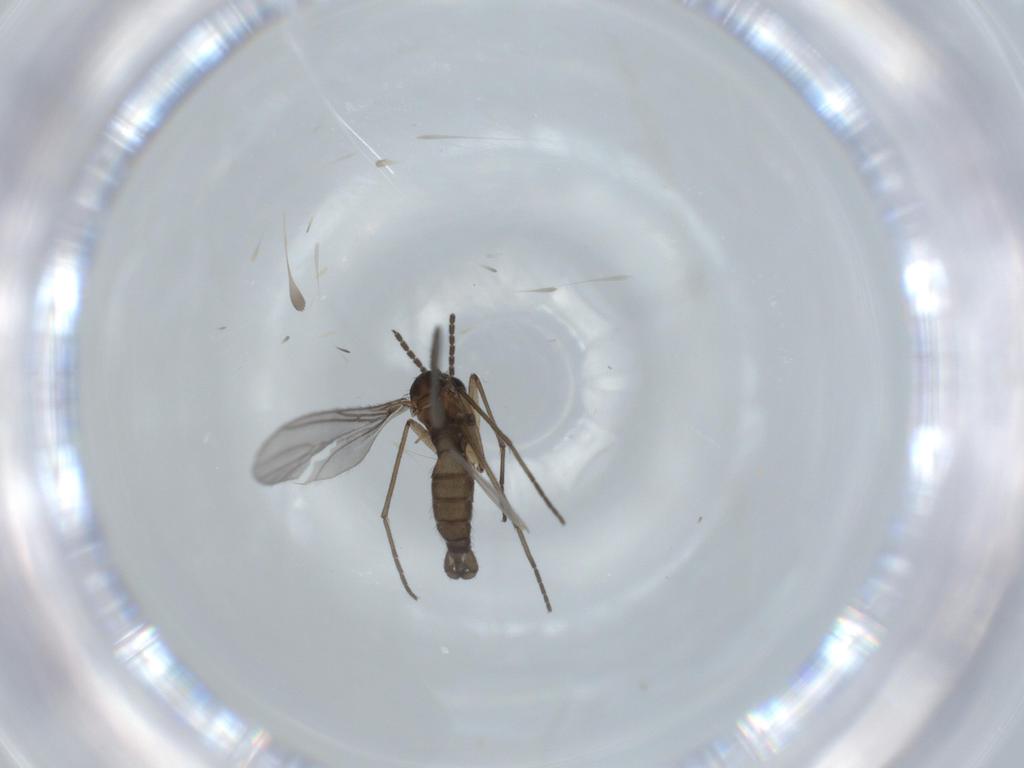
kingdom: Animalia
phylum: Arthropoda
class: Insecta
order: Diptera
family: Sciaridae
